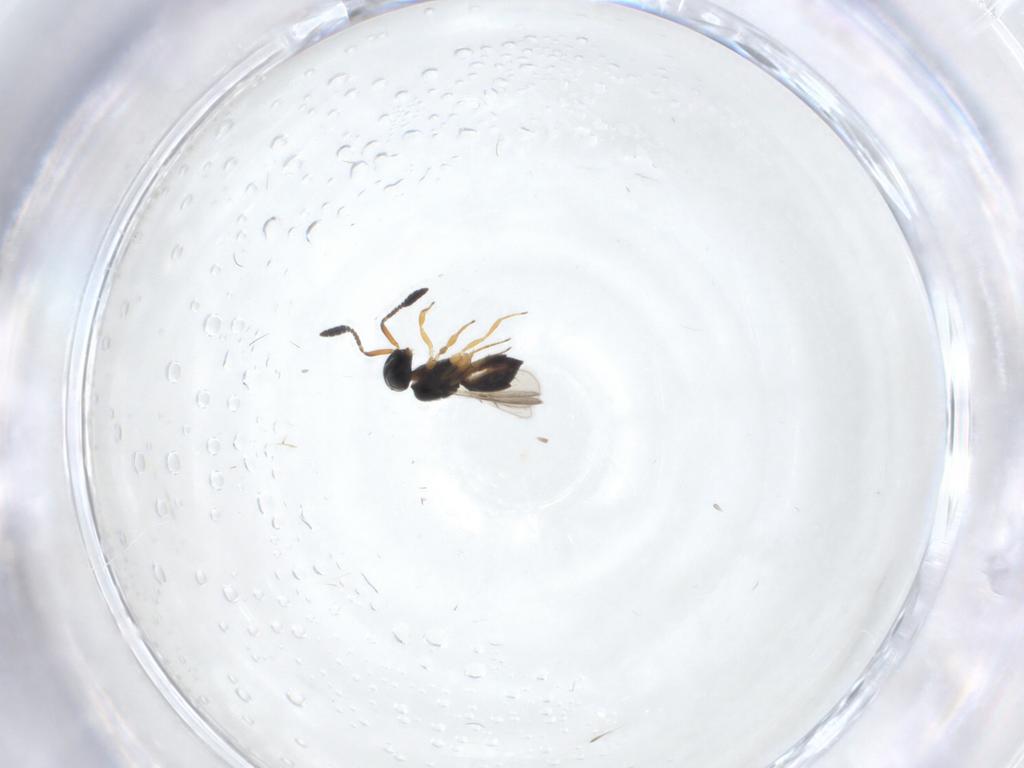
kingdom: Animalia
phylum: Arthropoda
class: Insecta
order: Hymenoptera
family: Scelionidae
